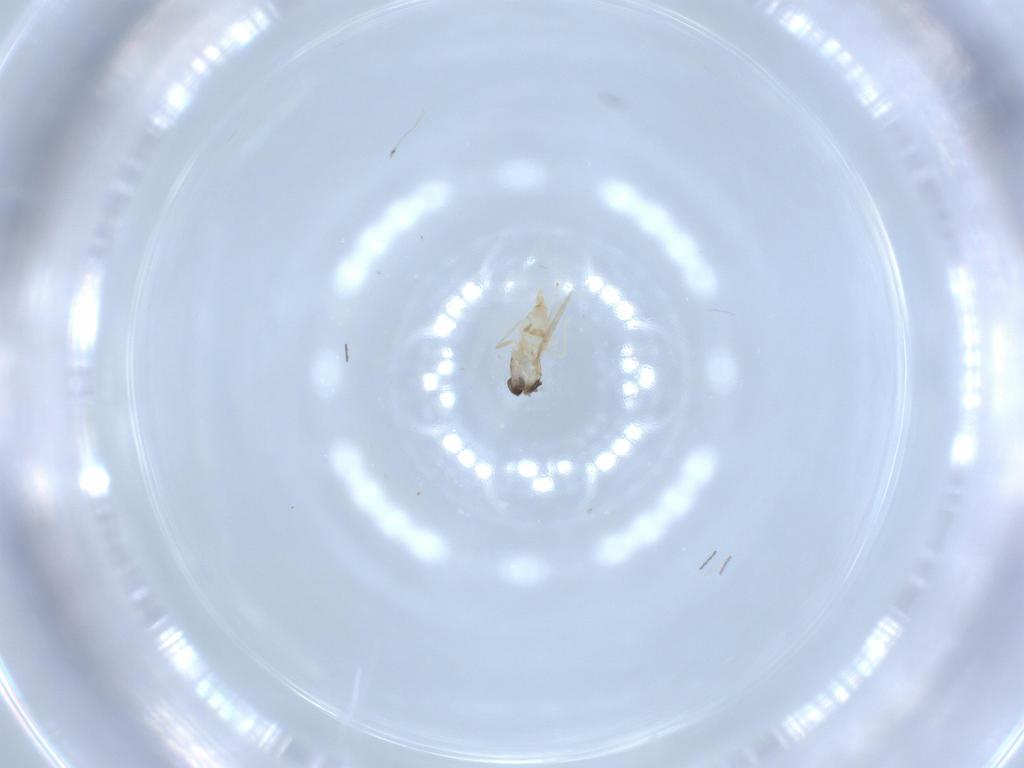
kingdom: Animalia
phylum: Arthropoda
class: Insecta
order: Diptera
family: Cecidomyiidae
